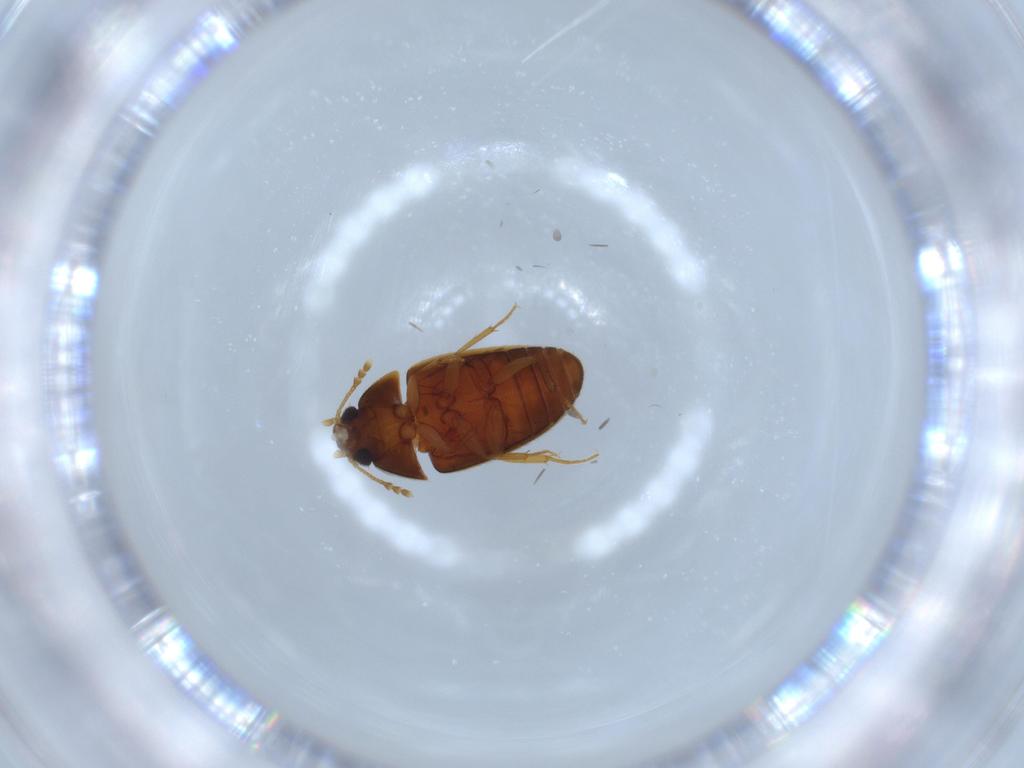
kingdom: Animalia
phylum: Arthropoda
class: Insecta
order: Coleoptera
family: Mycetophagidae
